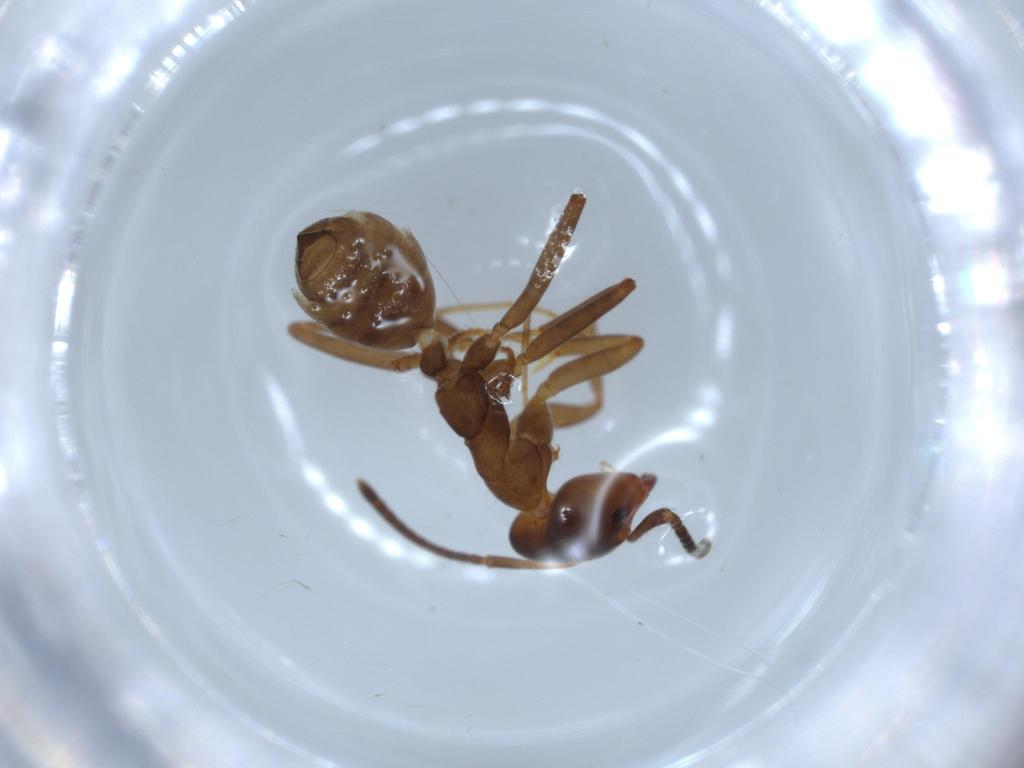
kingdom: Animalia
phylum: Arthropoda
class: Insecta
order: Hymenoptera
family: Formicidae
